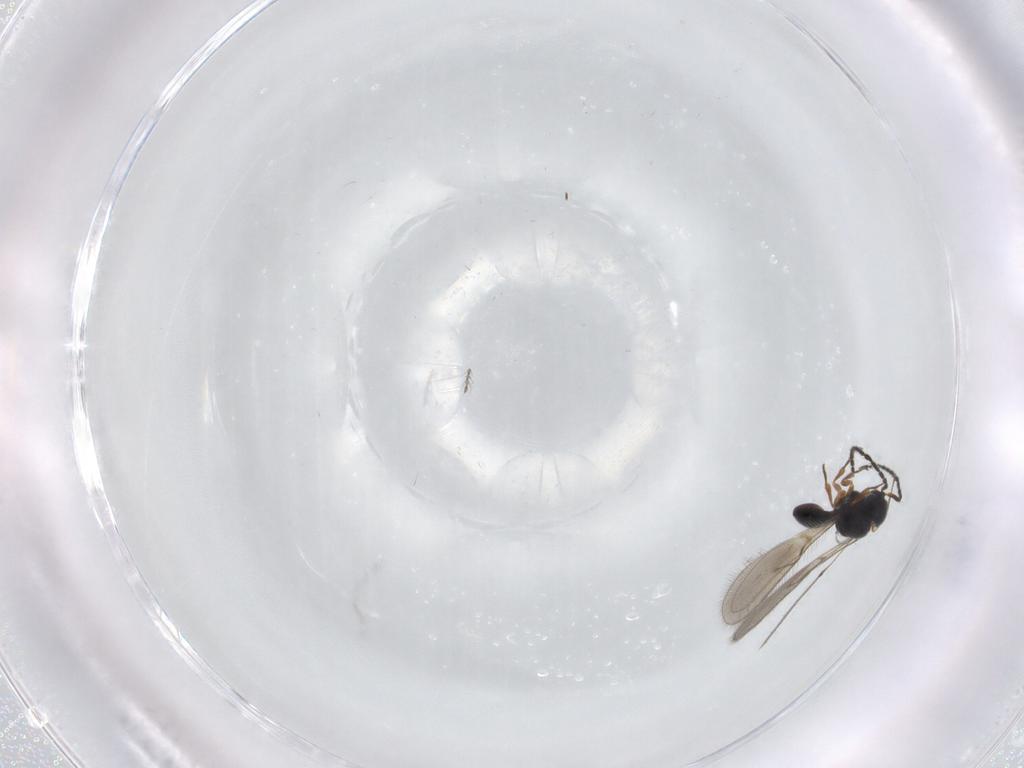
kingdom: Animalia
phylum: Arthropoda
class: Insecta
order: Hymenoptera
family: Scelionidae
